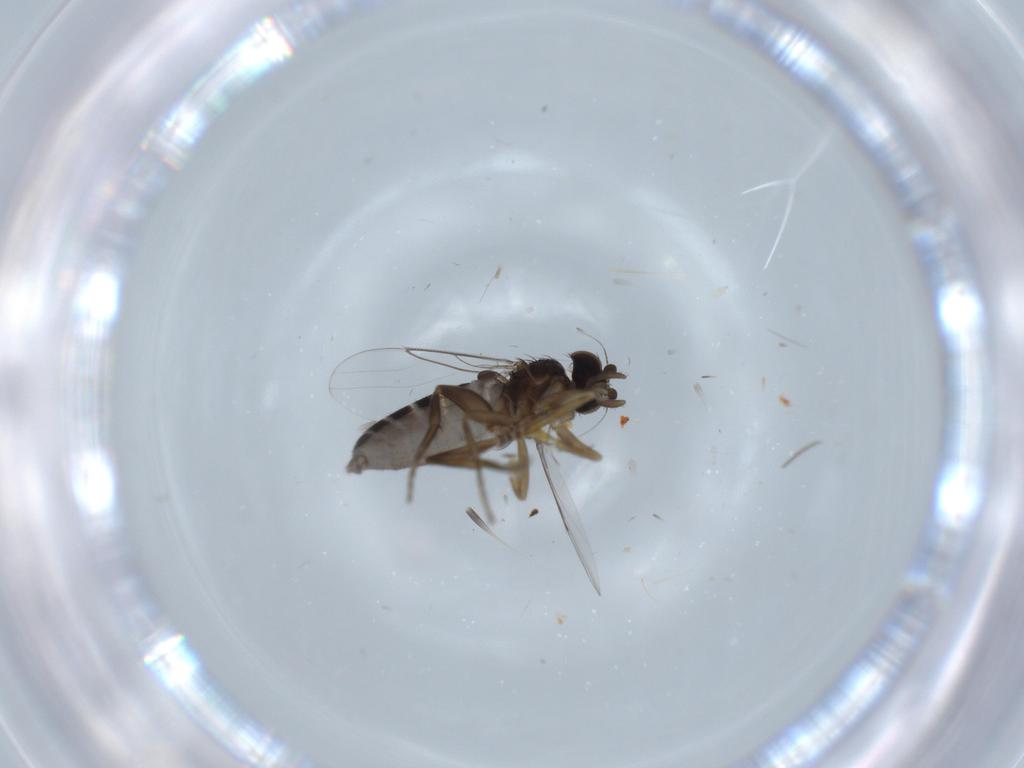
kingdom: Animalia
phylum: Arthropoda
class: Insecta
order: Diptera
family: Phoridae
